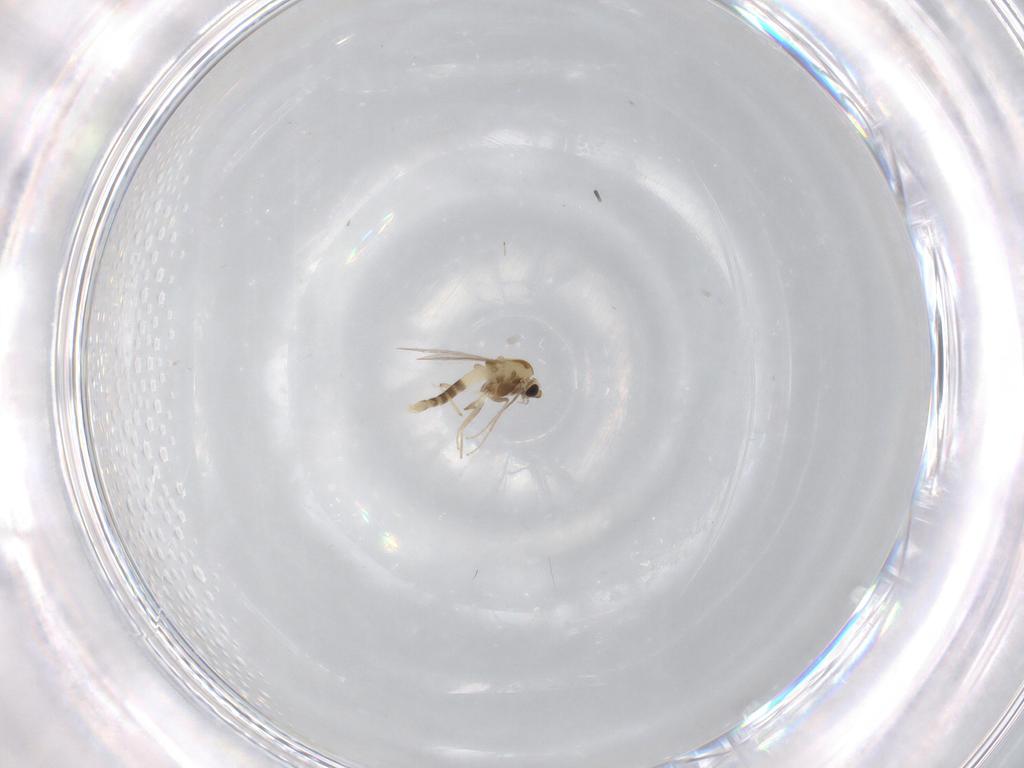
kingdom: Animalia
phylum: Arthropoda
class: Insecta
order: Diptera
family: Chironomidae
